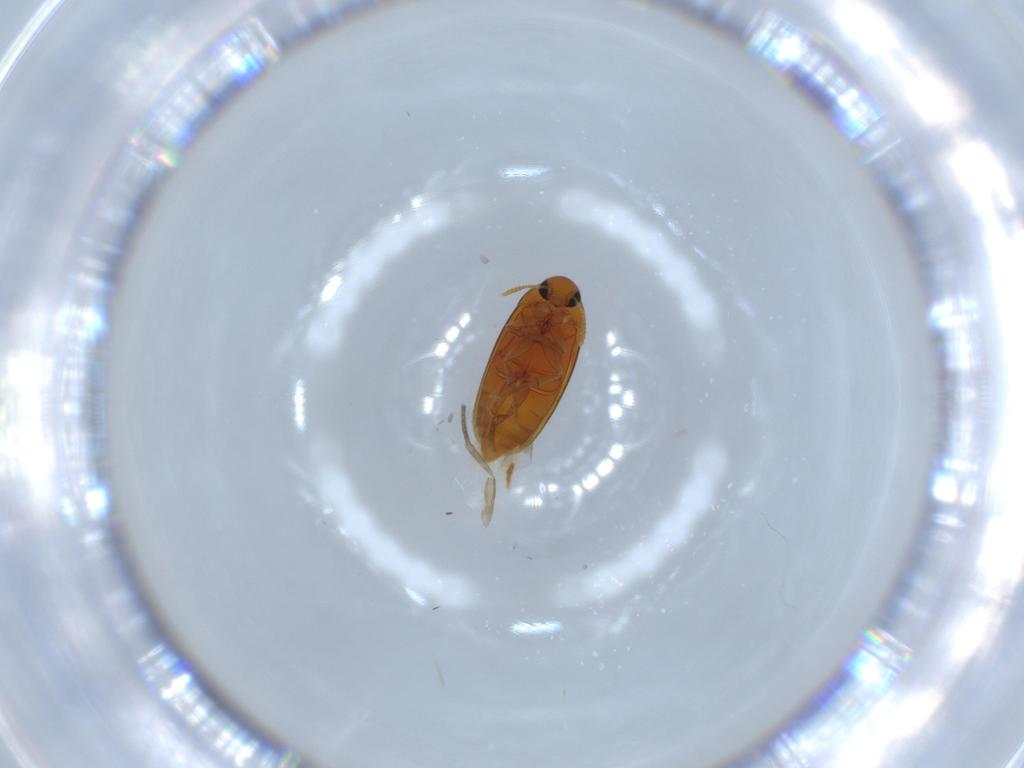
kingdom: Animalia
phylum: Arthropoda
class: Insecta
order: Coleoptera
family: Scraptiidae
